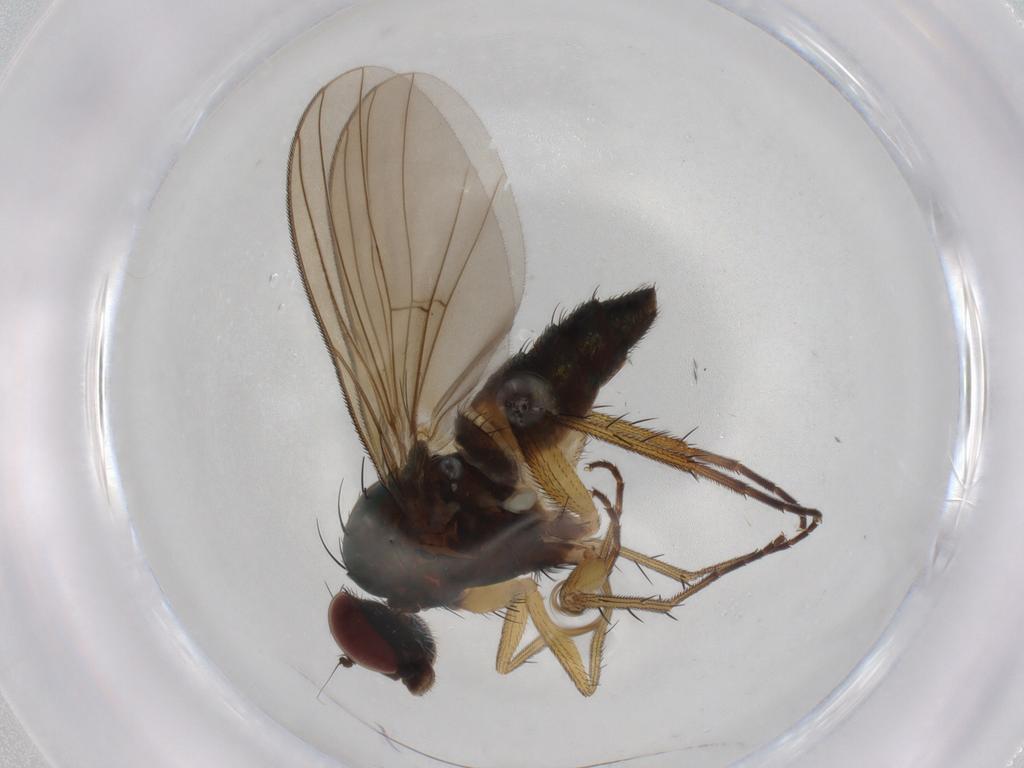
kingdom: Animalia
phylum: Arthropoda
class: Insecta
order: Diptera
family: Dolichopodidae
